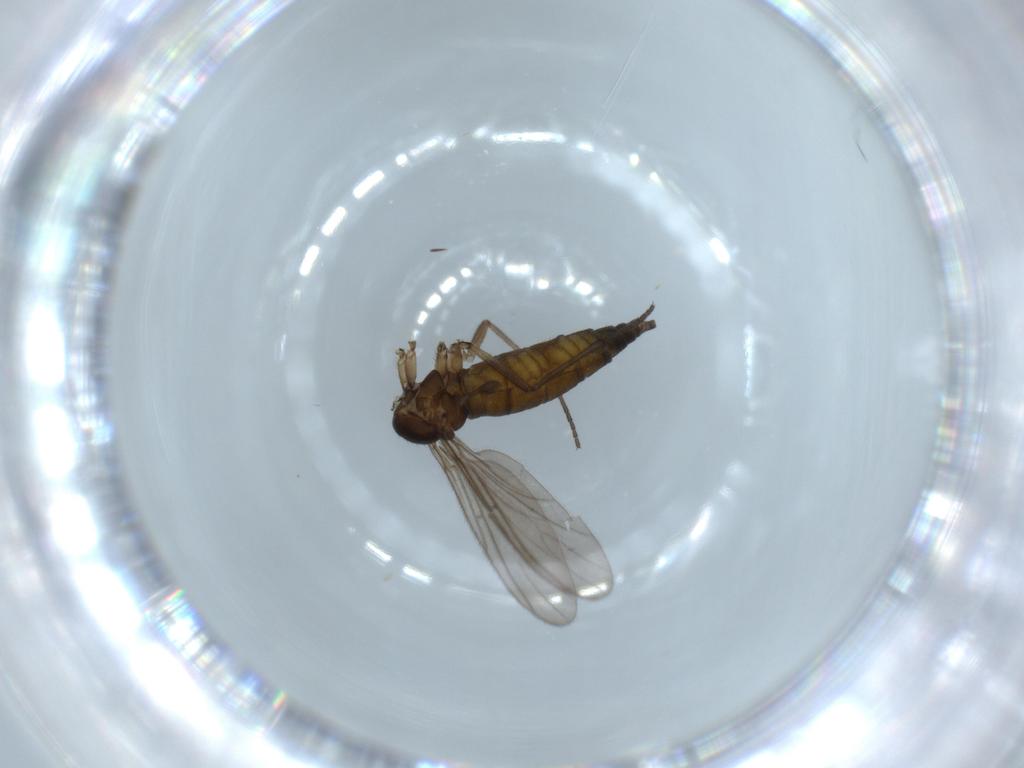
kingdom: Animalia
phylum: Arthropoda
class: Insecta
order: Diptera
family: Sciaridae
